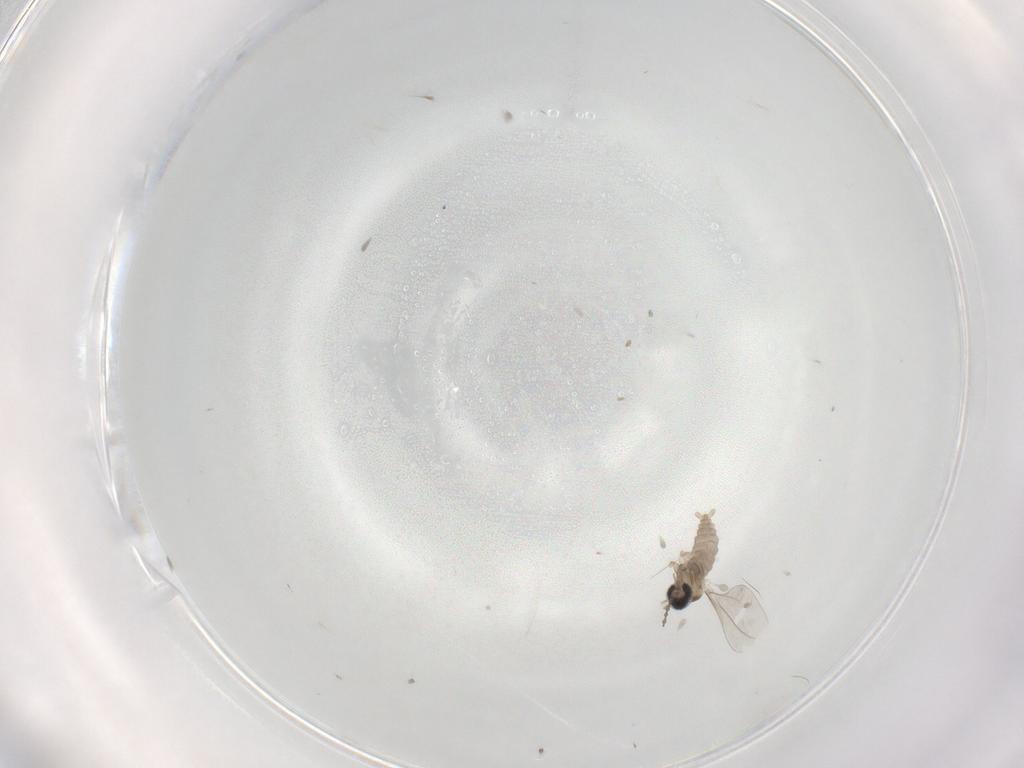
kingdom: Animalia
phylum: Arthropoda
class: Insecta
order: Diptera
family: Cecidomyiidae
